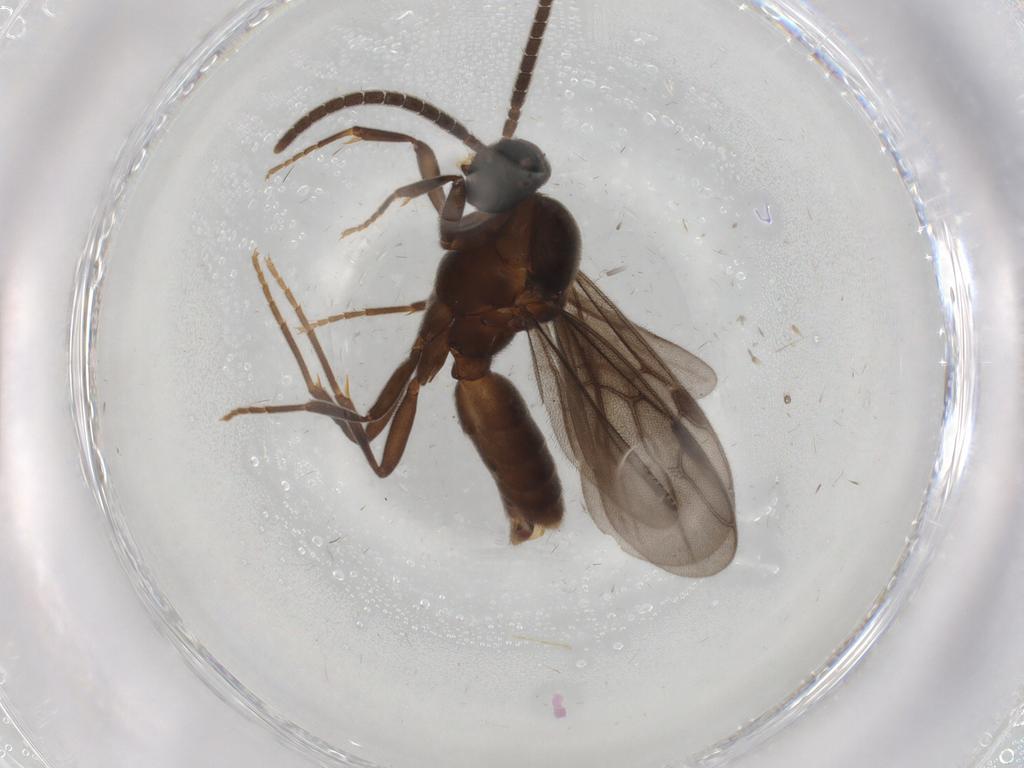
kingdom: Animalia
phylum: Arthropoda
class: Insecta
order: Hymenoptera
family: Formicidae
